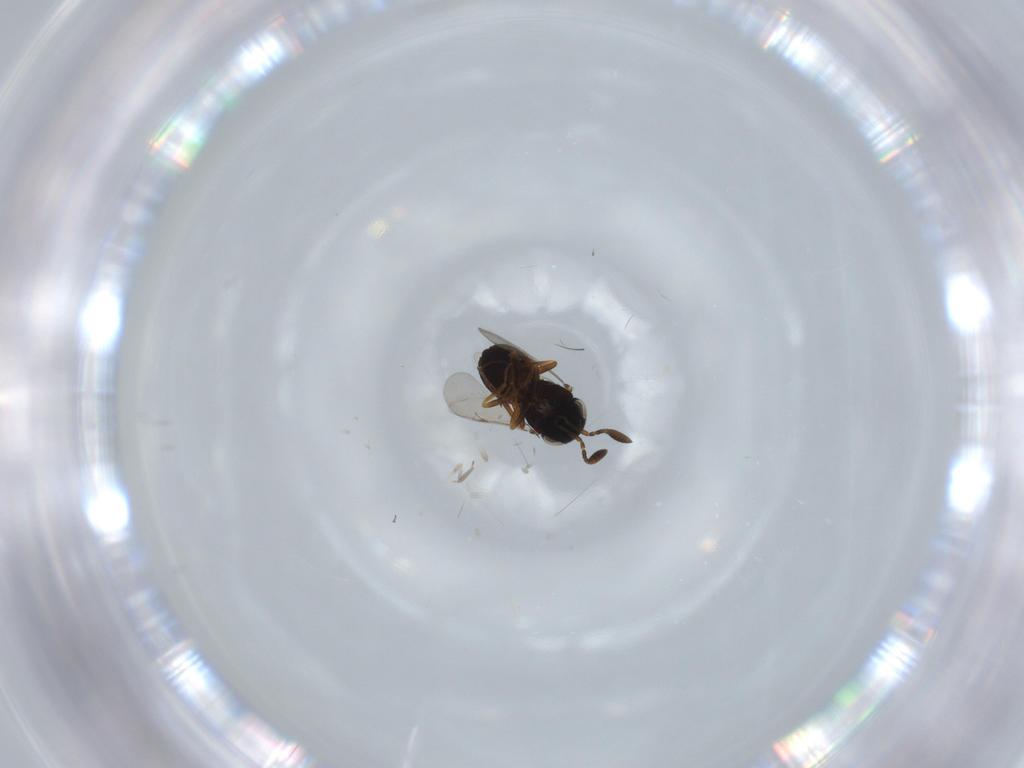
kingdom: Animalia
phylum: Arthropoda
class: Insecta
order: Hymenoptera
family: Scelionidae
